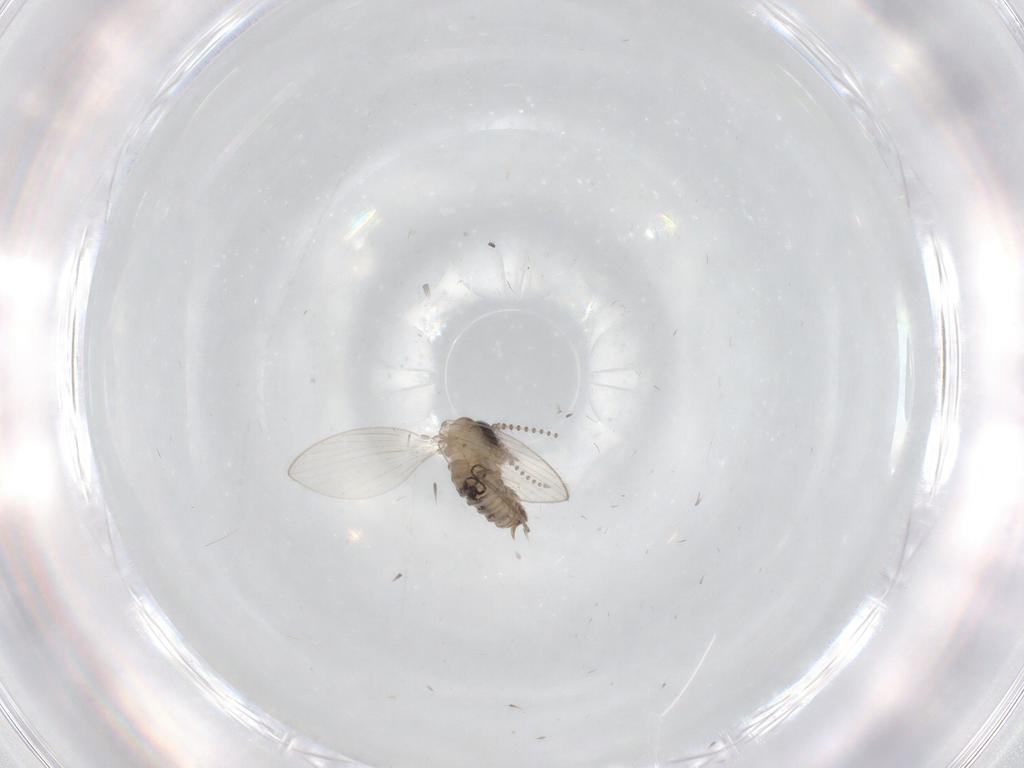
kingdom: Animalia
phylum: Arthropoda
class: Insecta
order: Diptera
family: Psychodidae
